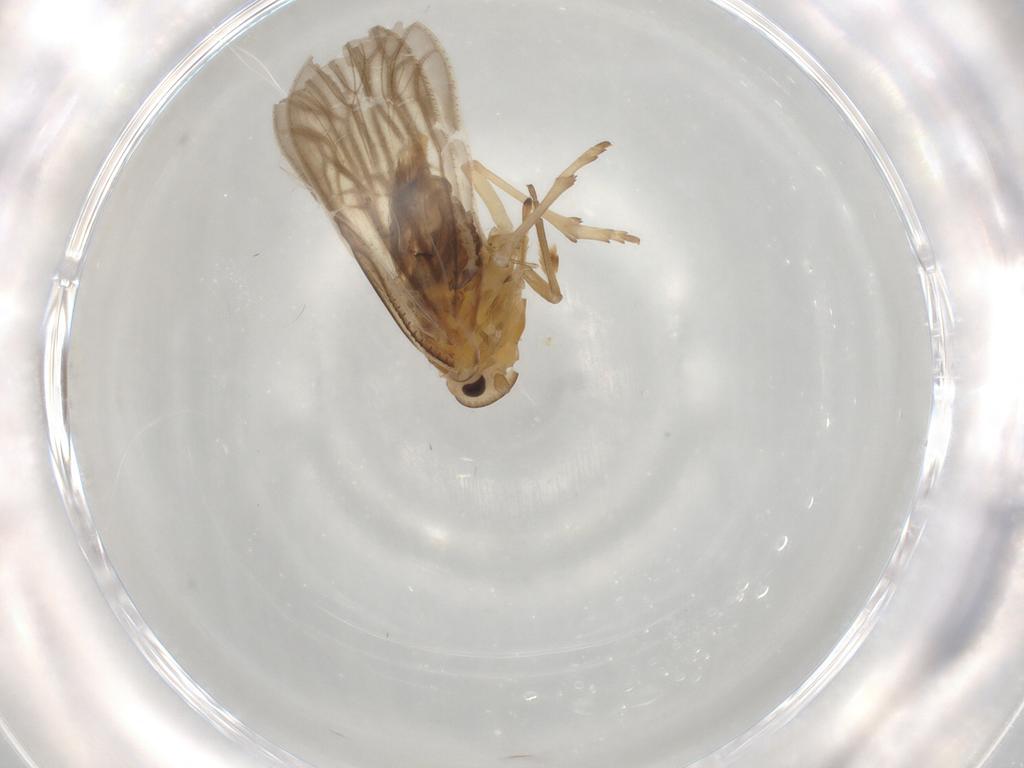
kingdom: Animalia
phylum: Arthropoda
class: Insecta
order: Hemiptera
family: Meenoplidae
